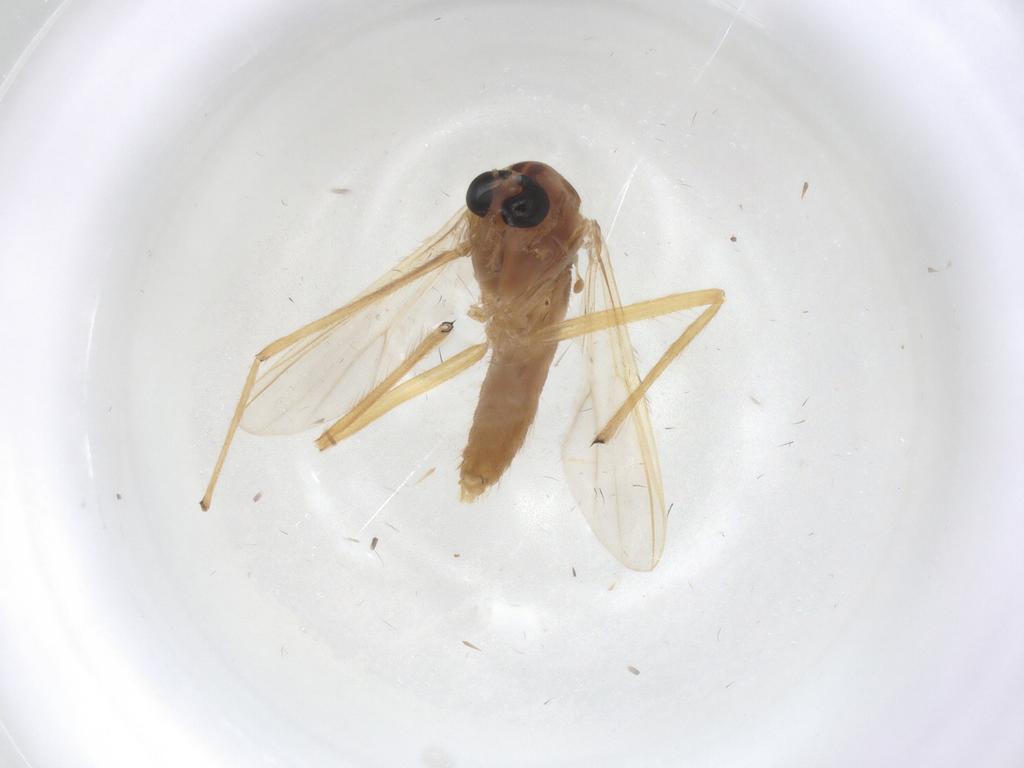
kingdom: Animalia
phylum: Arthropoda
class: Insecta
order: Diptera
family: Chironomidae
